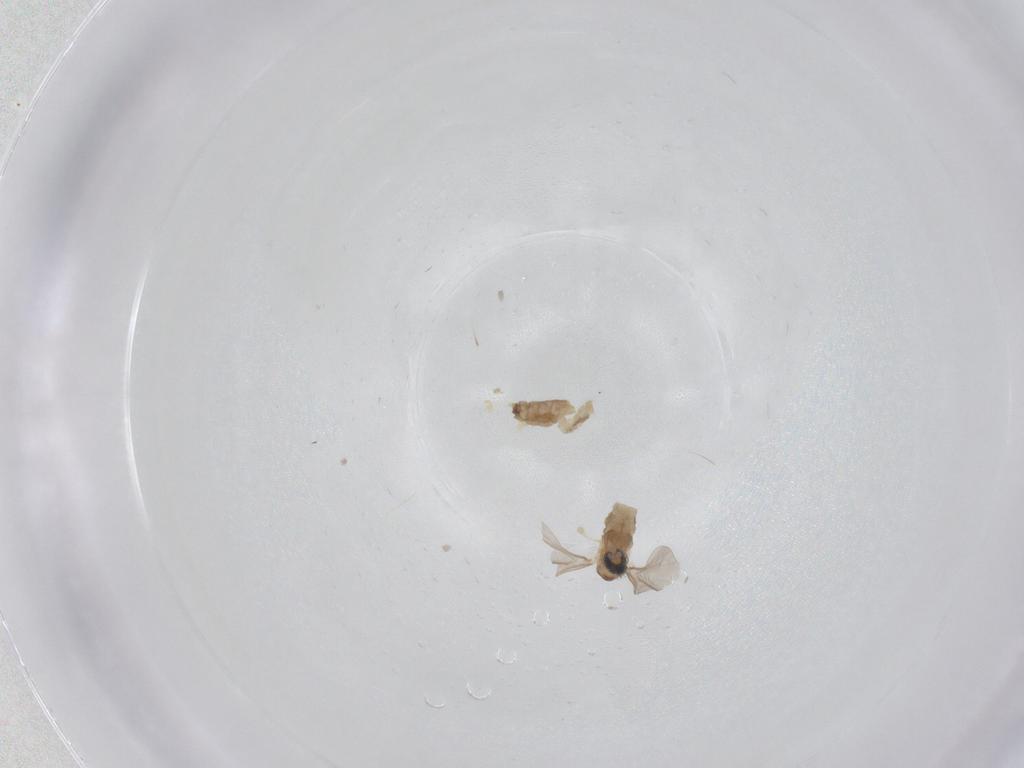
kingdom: Animalia
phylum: Arthropoda
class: Insecta
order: Diptera
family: Cecidomyiidae
